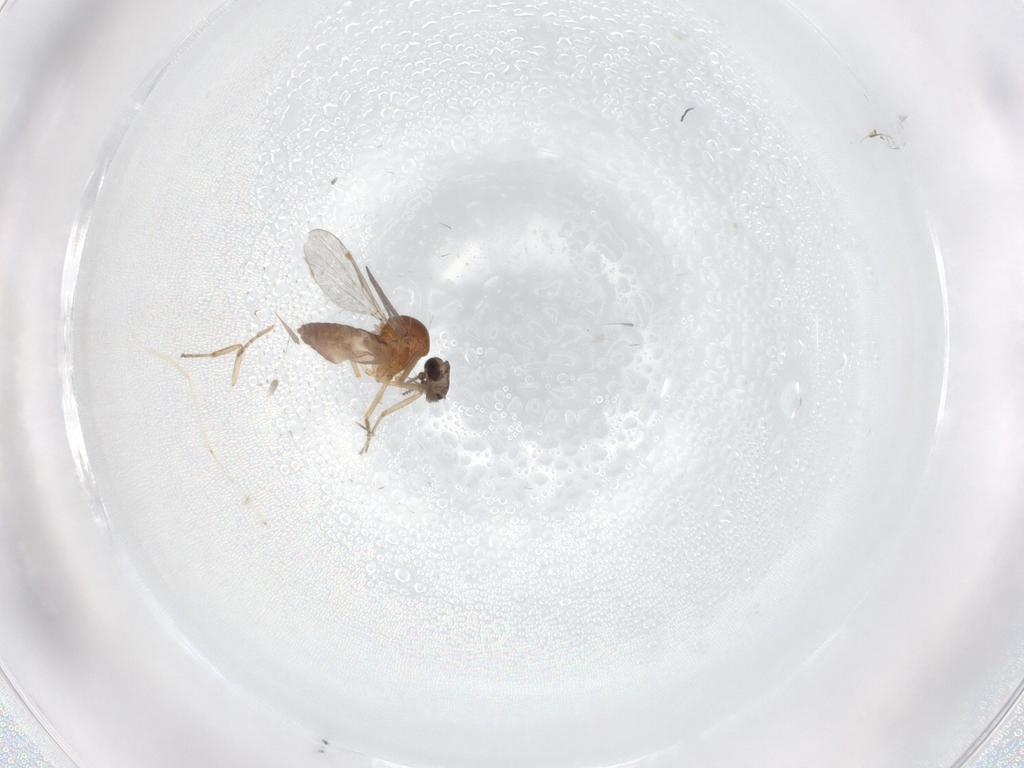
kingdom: Animalia
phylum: Arthropoda
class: Insecta
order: Diptera
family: Ceratopogonidae
